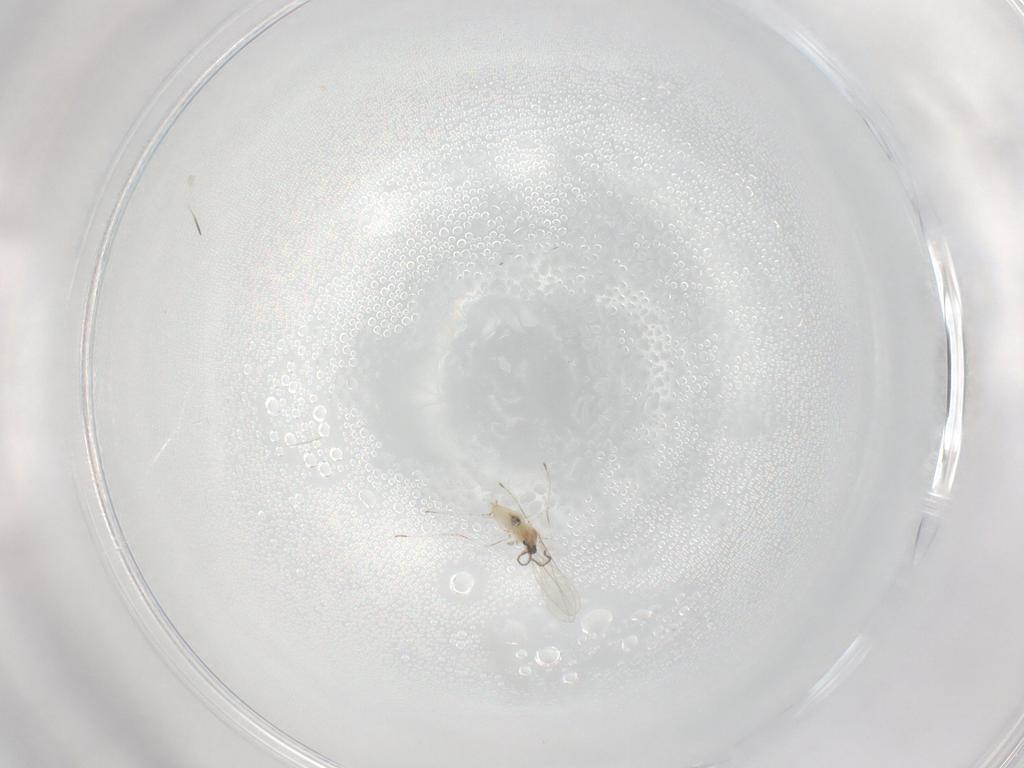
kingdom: Animalia
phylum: Arthropoda
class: Insecta
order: Diptera
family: Cecidomyiidae
